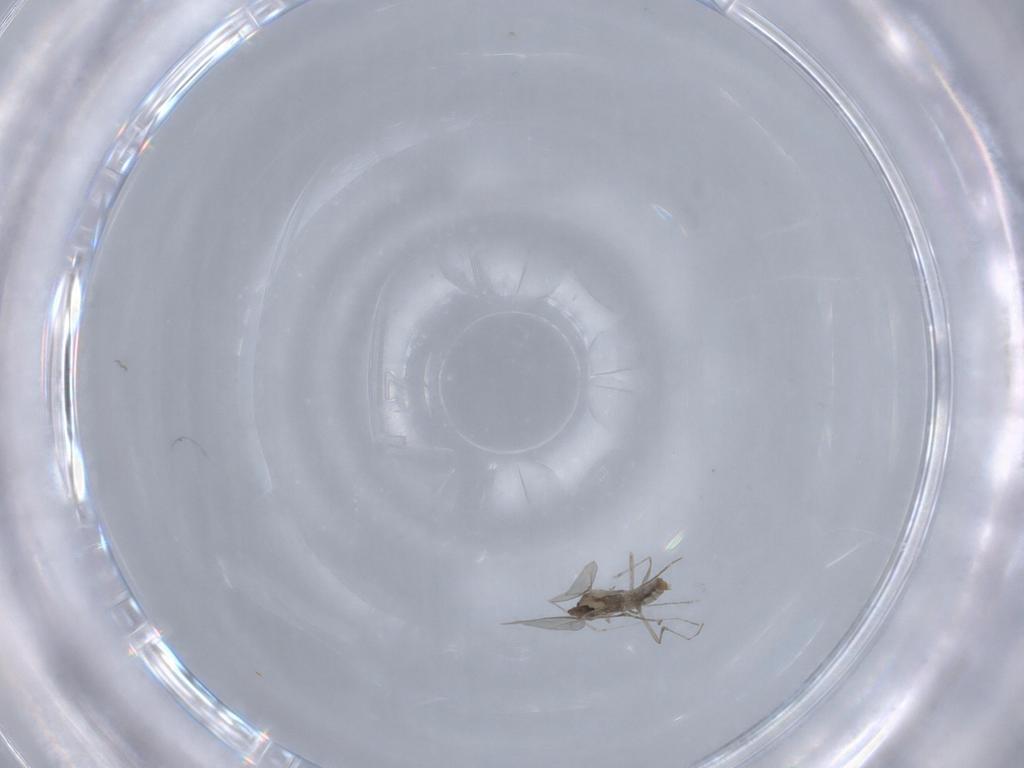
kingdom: Animalia
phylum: Arthropoda
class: Insecta
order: Diptera
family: Cecidomyiidae
